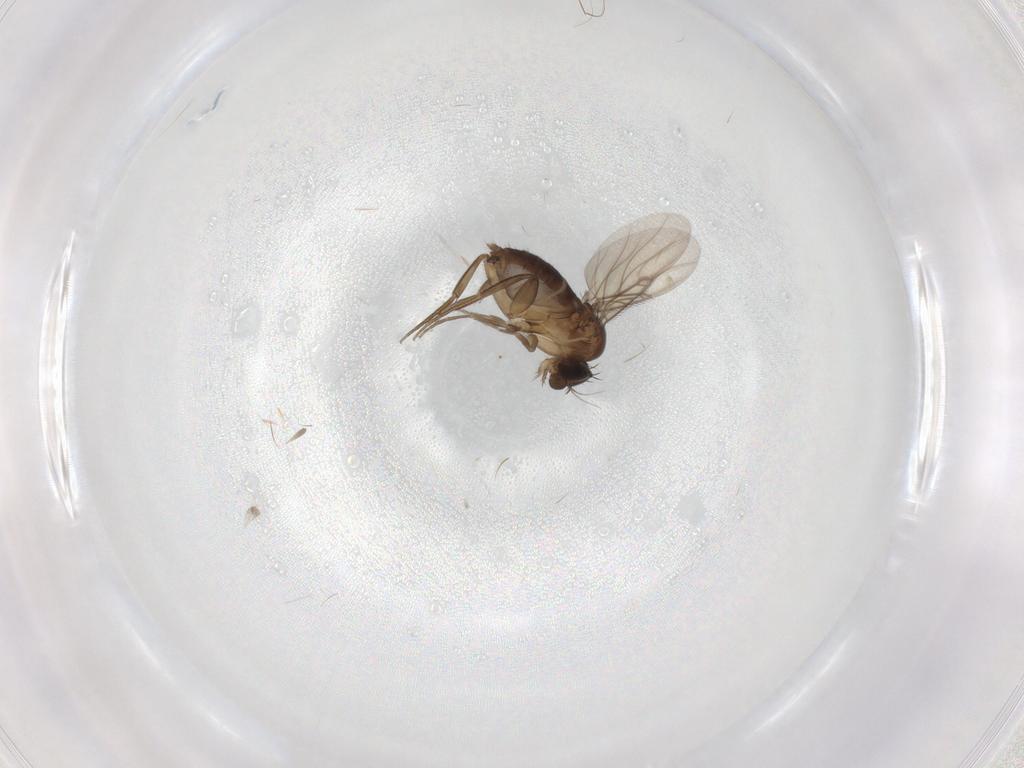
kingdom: Animalia
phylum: Arthropoda
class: Insecta
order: Diptera
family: Phoridae
